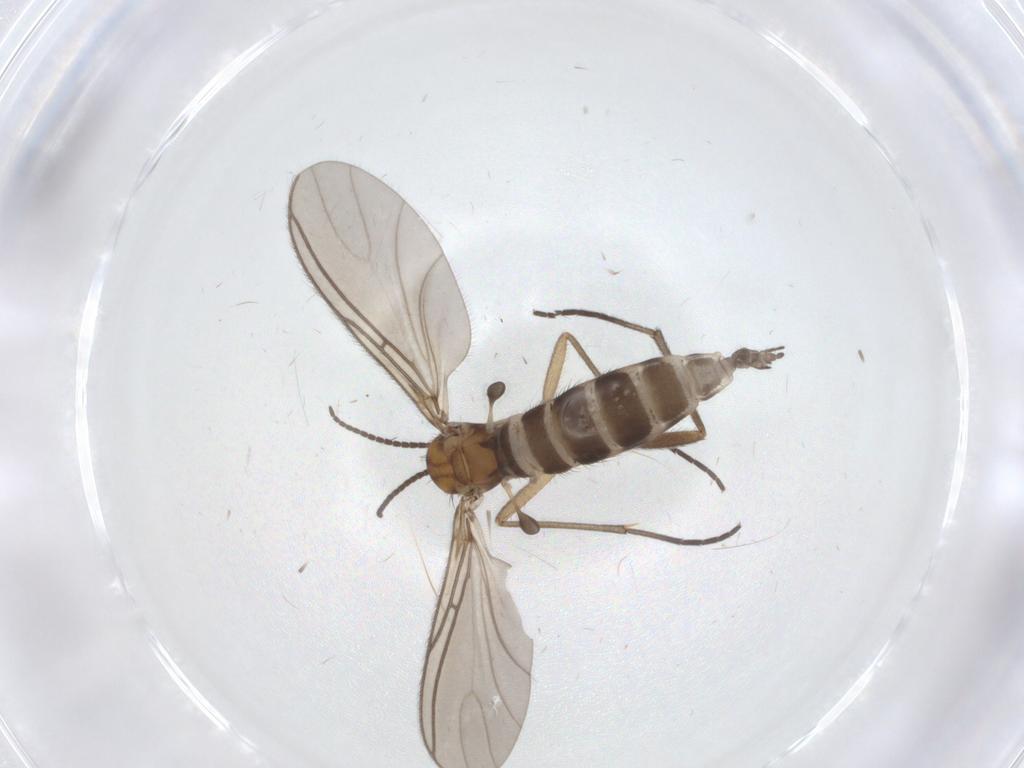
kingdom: Animalia
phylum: Arthropoda
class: Insecta
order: Diptera
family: Sciaridae
